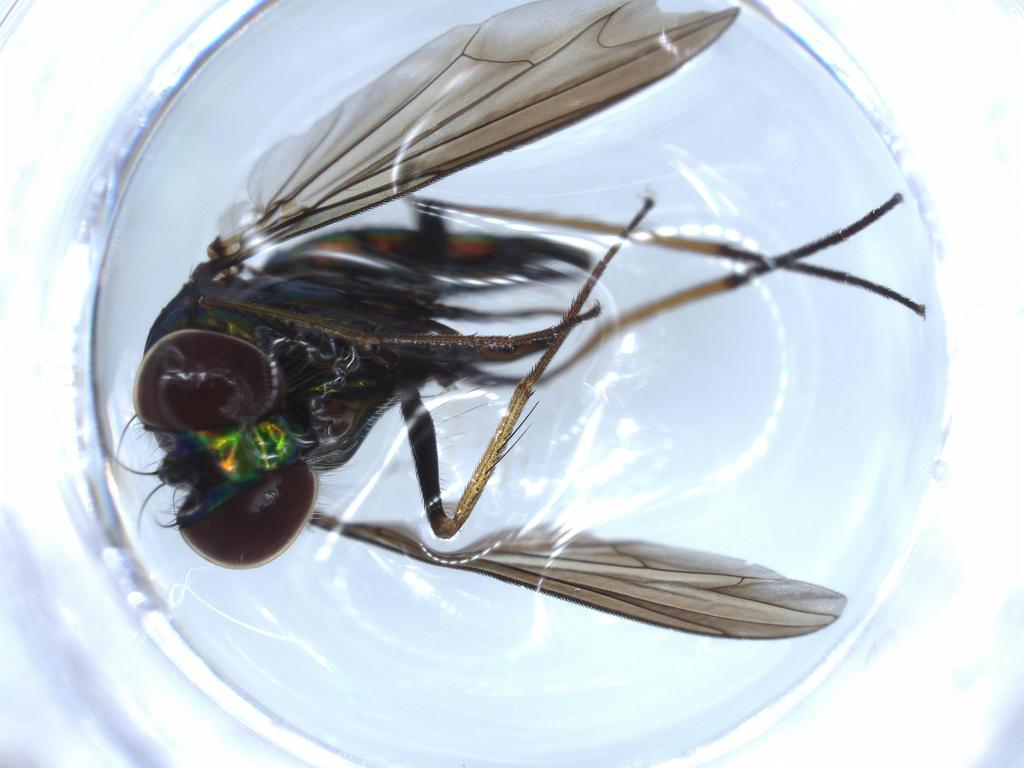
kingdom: Animalia
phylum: Arthropoda
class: Insecta
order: Diptera
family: Dolichopodidae
